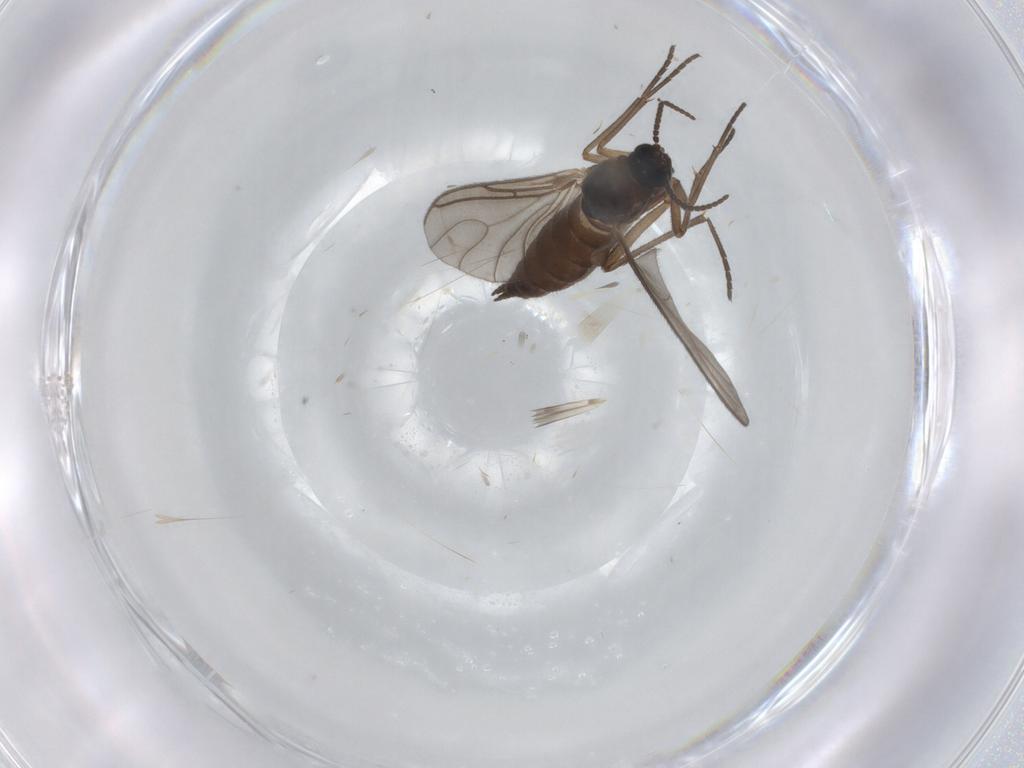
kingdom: Animalia
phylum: Arthropoda
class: Insecta
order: Diptera
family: Sciaridae
